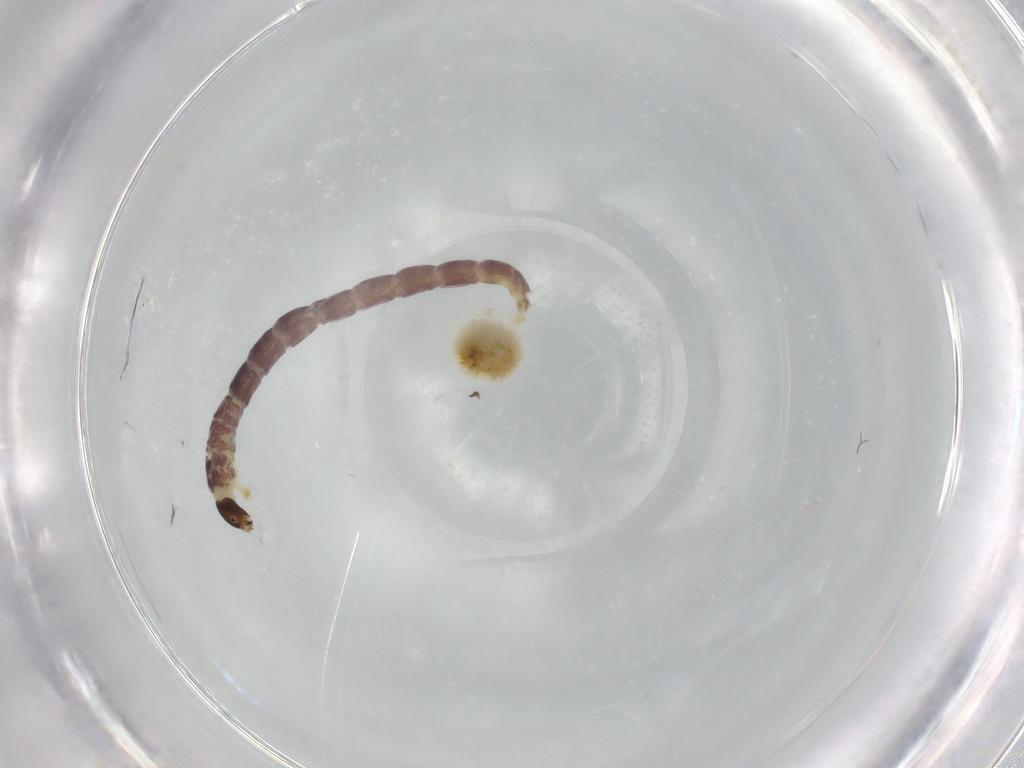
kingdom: Animalia
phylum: Arthropoda
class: Insecta
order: Diptera
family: Chironomidae
